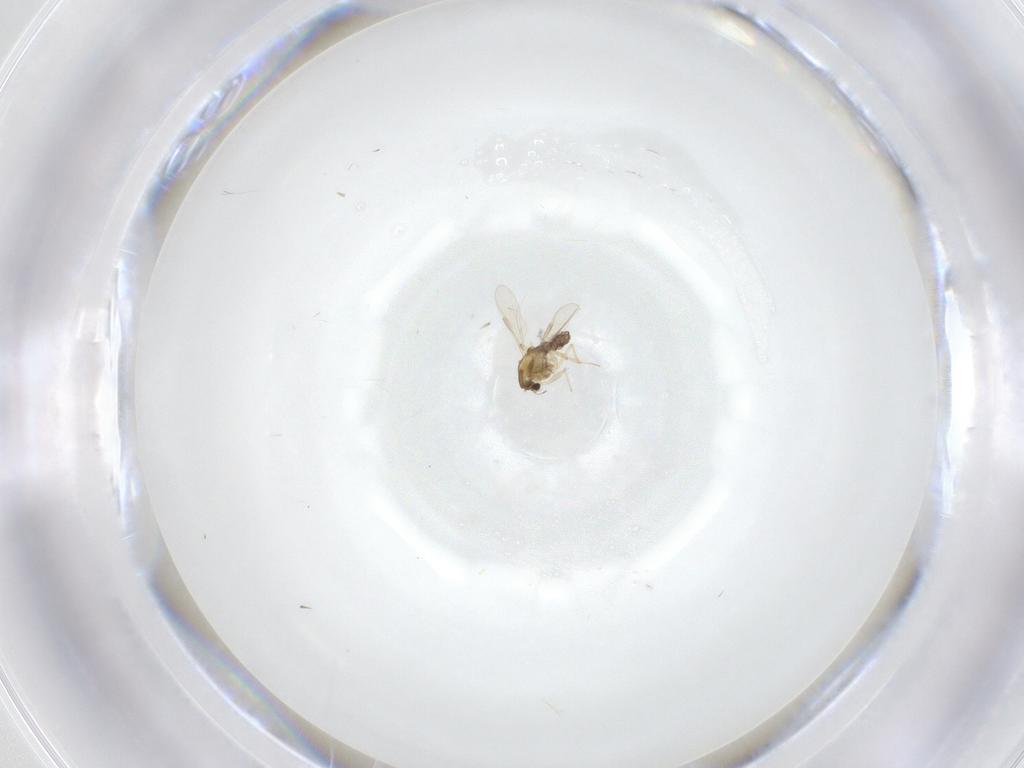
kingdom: Animalia
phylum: Arthropoda
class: Insecta
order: Diptera
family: Chironomidae
